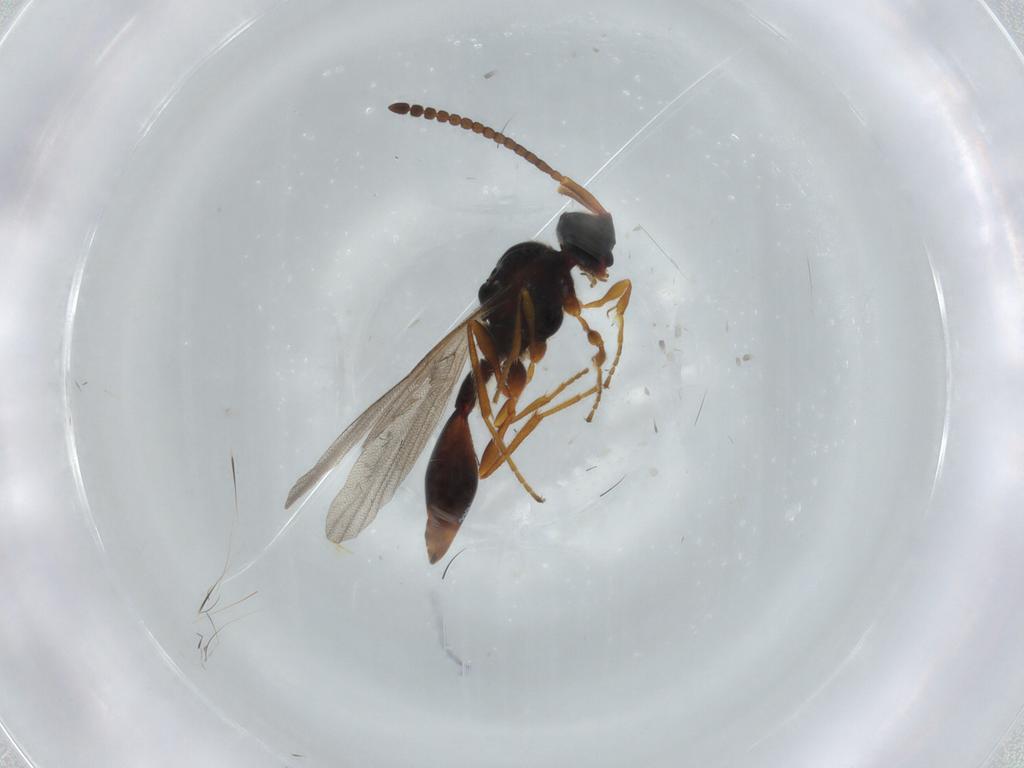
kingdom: Animalia
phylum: Arthropoda
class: Insecta
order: Hymenoptera
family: Diapriidae
